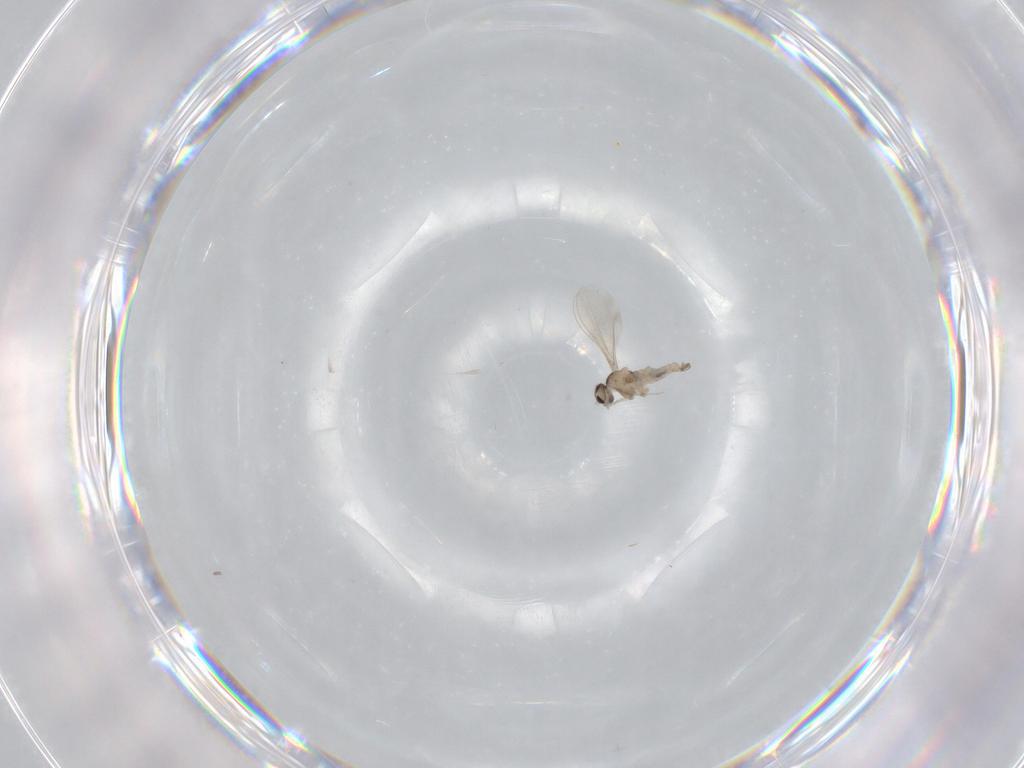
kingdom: Animalia
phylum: Arthropoda
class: Insecta
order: Diptera
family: Cecidomyiidae
